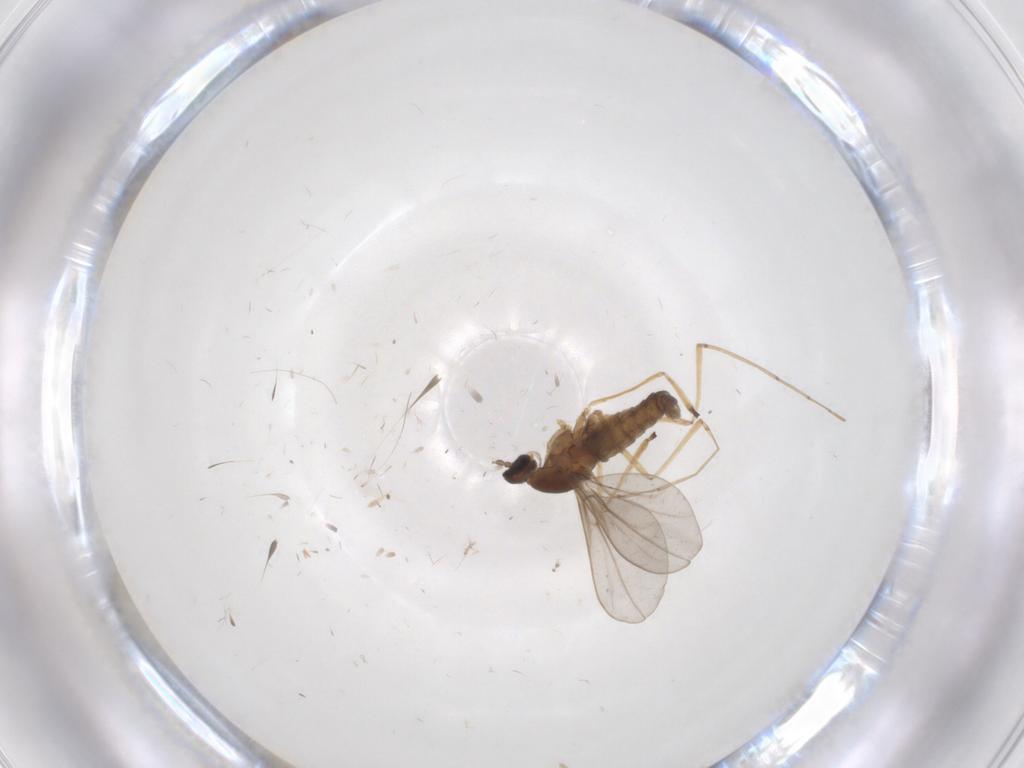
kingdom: Animalia
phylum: Arthropoda
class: Insecta
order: Diptera
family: Cecidomyiidae
